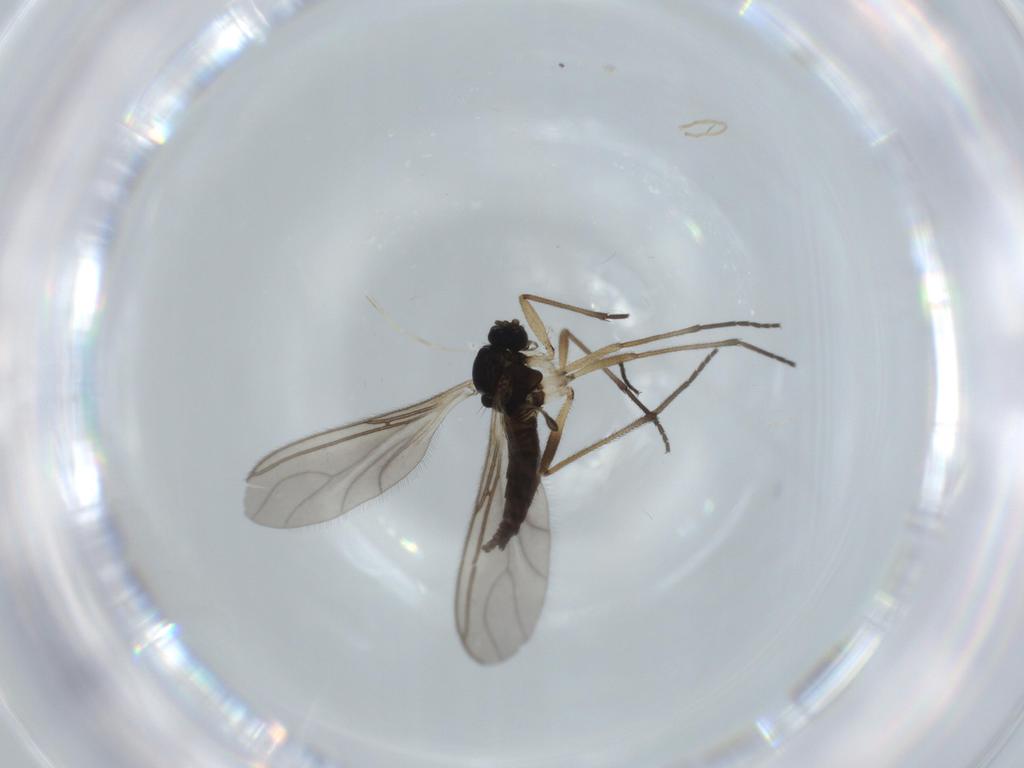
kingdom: Animalia
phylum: Arthropoda
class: Insecta
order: Diptera
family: Sciaridae
